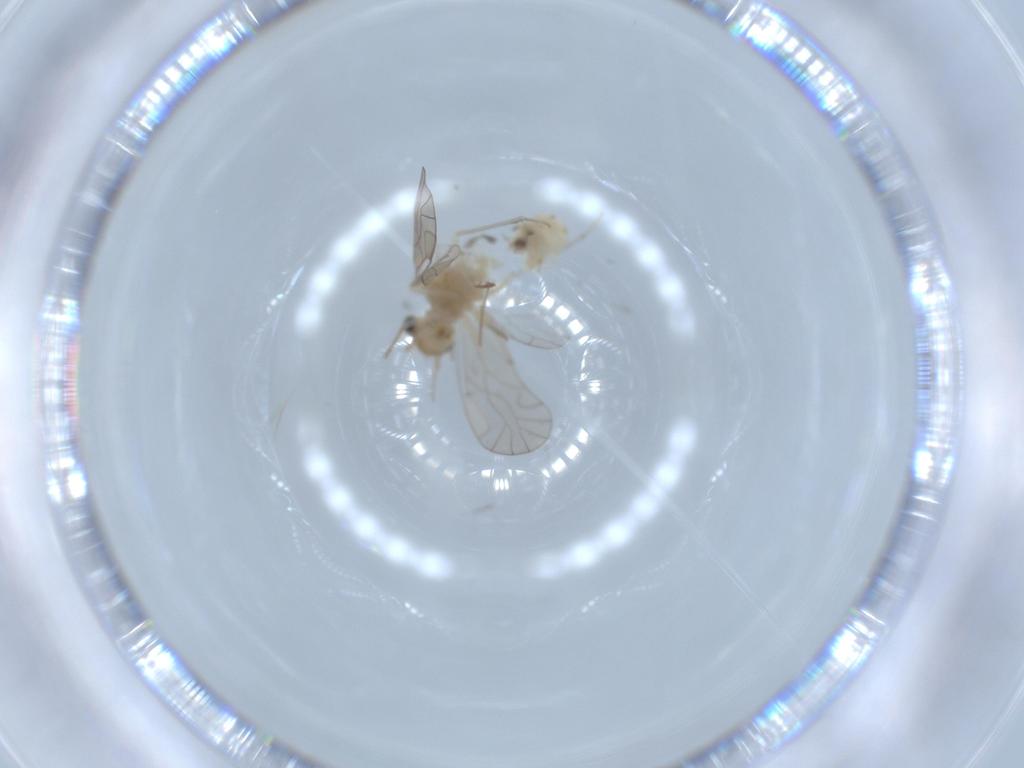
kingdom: Animalia
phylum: Arthropoda
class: Insecta
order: Psocodea
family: Lachesillidae
